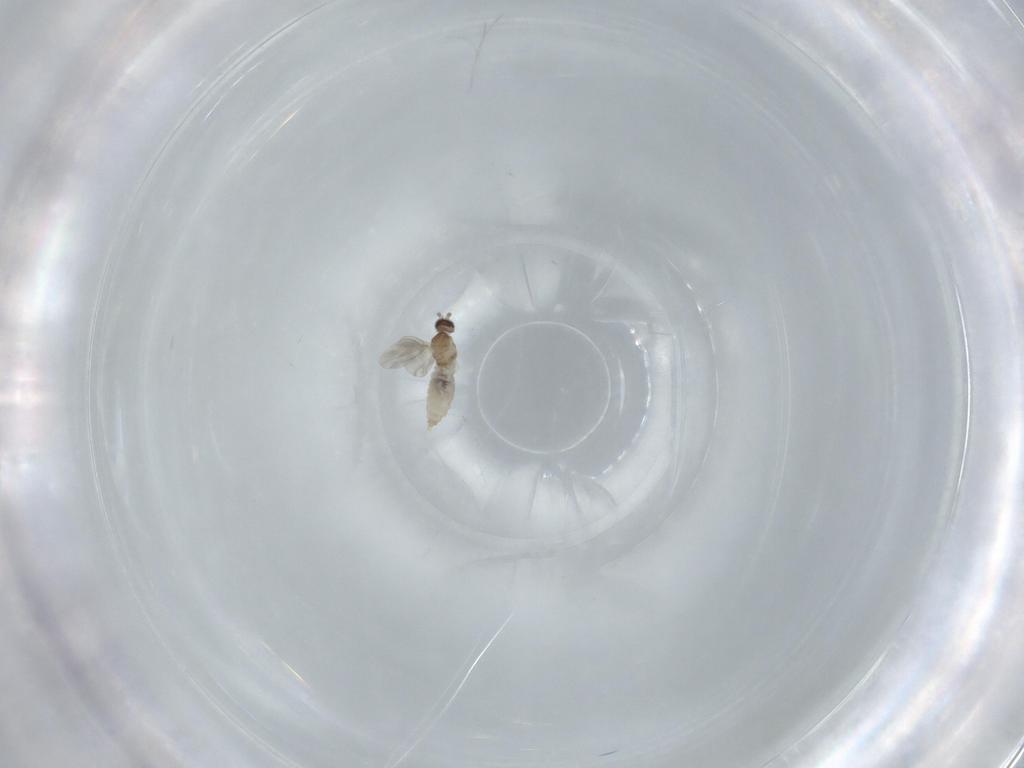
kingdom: Animalia
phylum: Arthropoda
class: Insecta
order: Diptera
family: Cecidomyiidae
